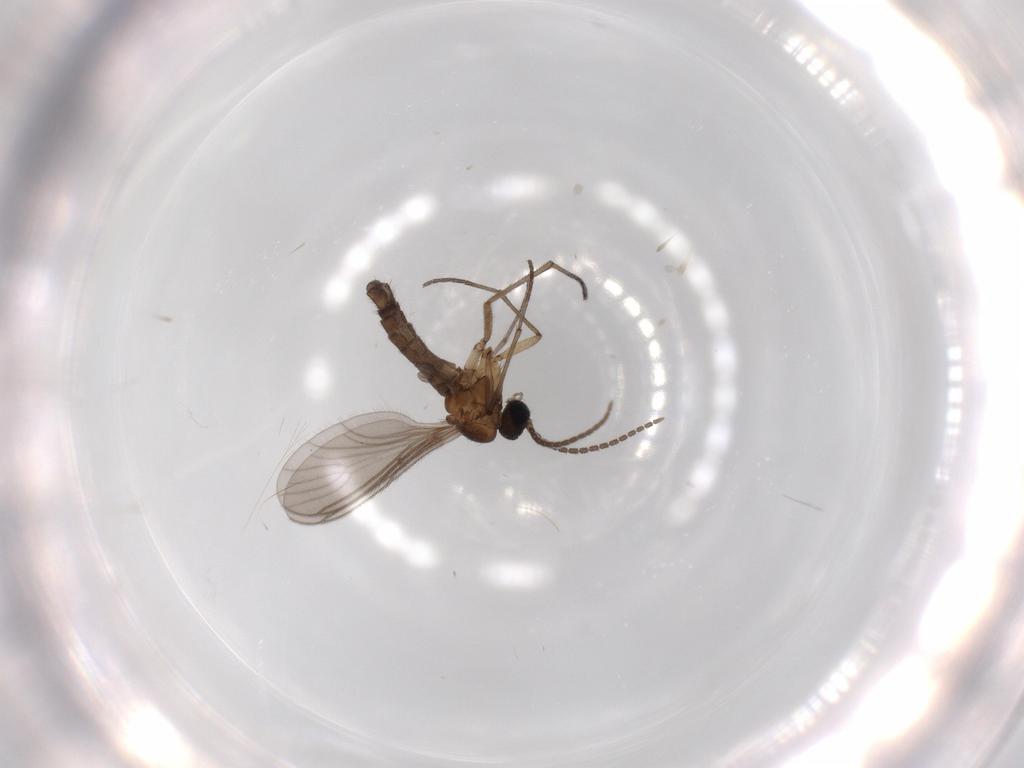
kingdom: Animalia
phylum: Arthropoda
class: Insecta
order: Diptera
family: Sciaridae
